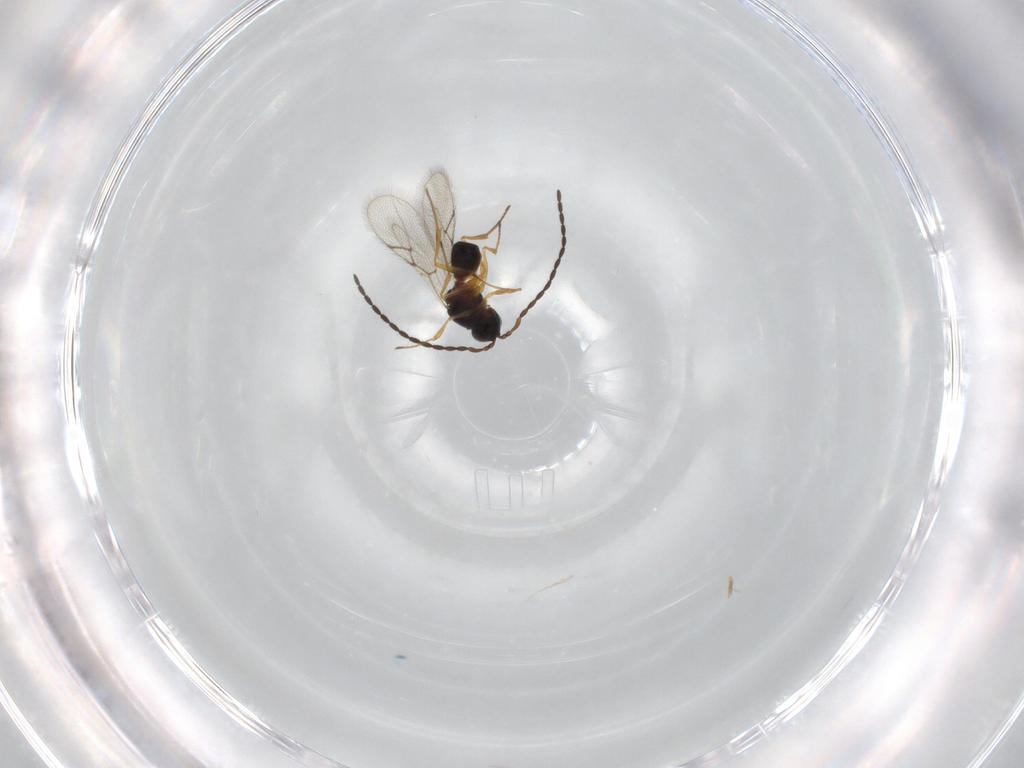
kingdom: Animalia
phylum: Arthropoda
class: Insecta
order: Hymenoptera
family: Figitidae
